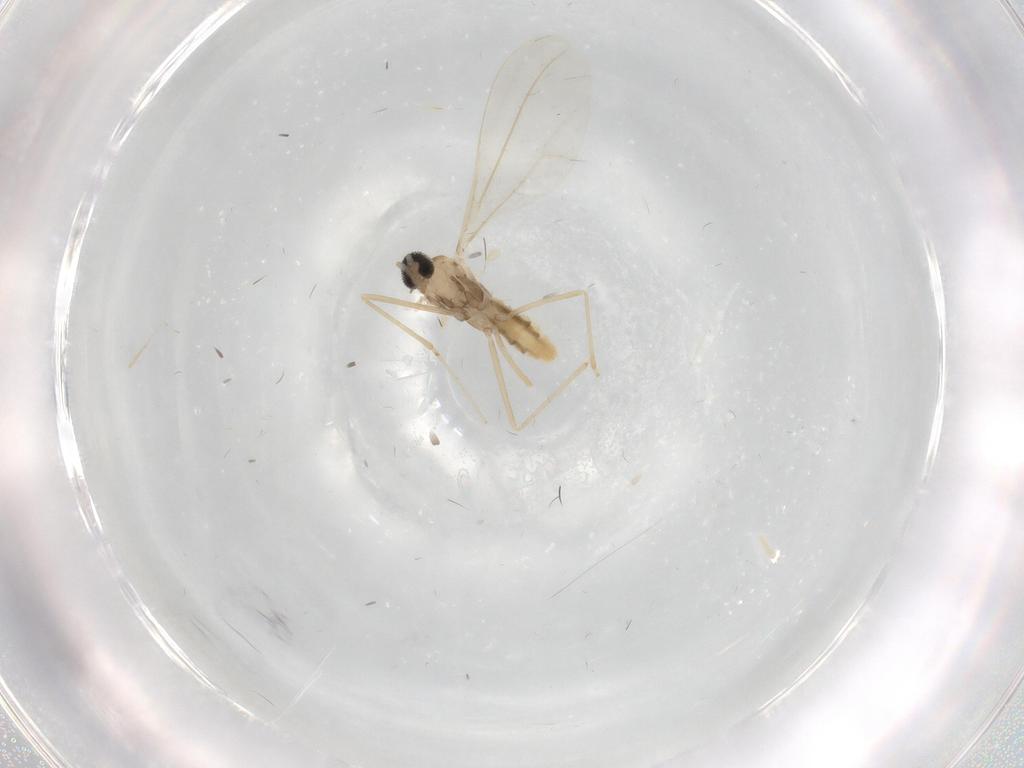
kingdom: Animalia
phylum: Arthropoda
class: Insecta
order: Diptera
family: Cecidomyiidae
